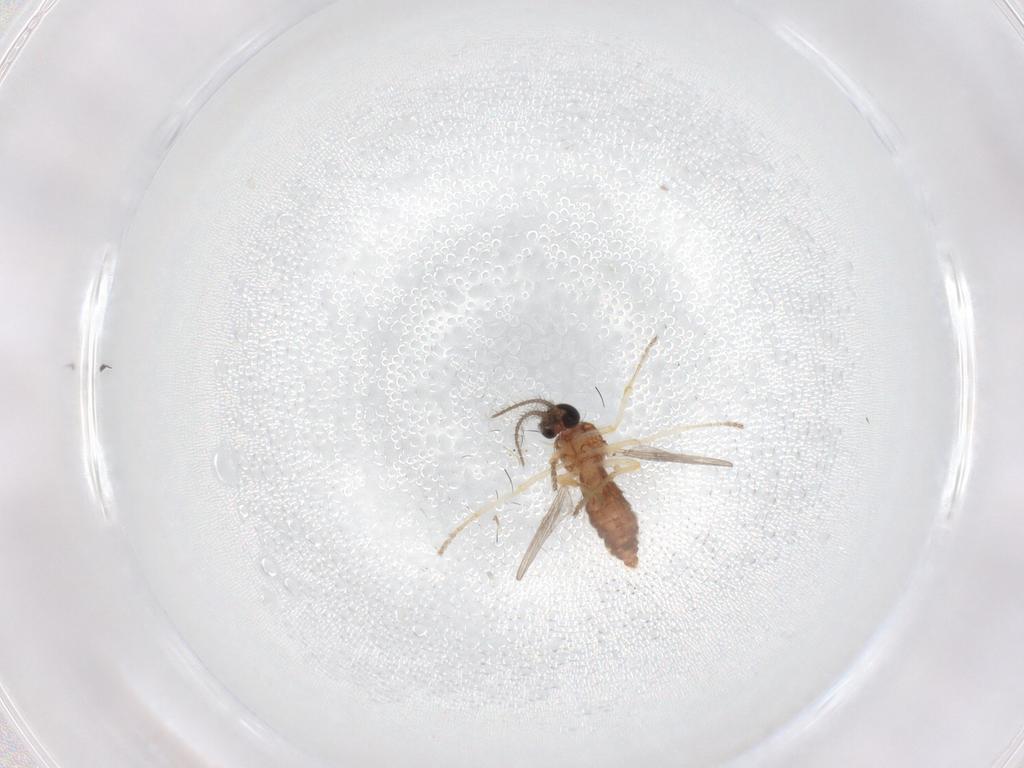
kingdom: Animalia
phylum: Arthropoda
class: Insecta
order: Diptera
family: Ceratopogonidae
